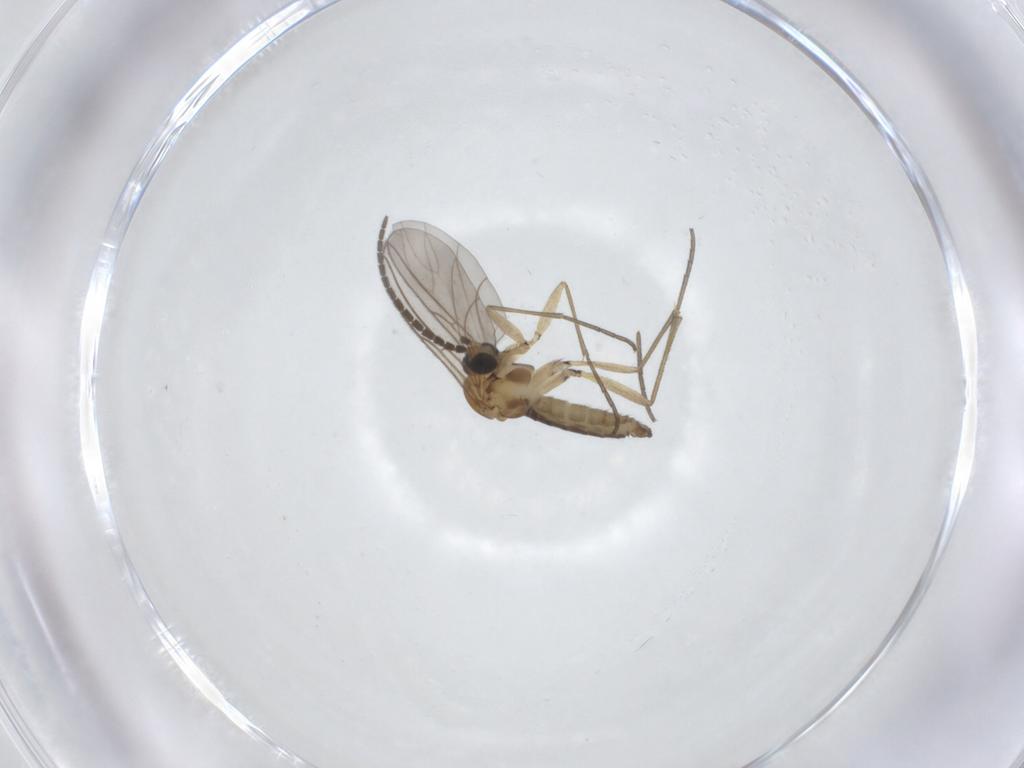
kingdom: Animalia
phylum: Arthropoda
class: Insecta
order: Diptera
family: Sciaridae
